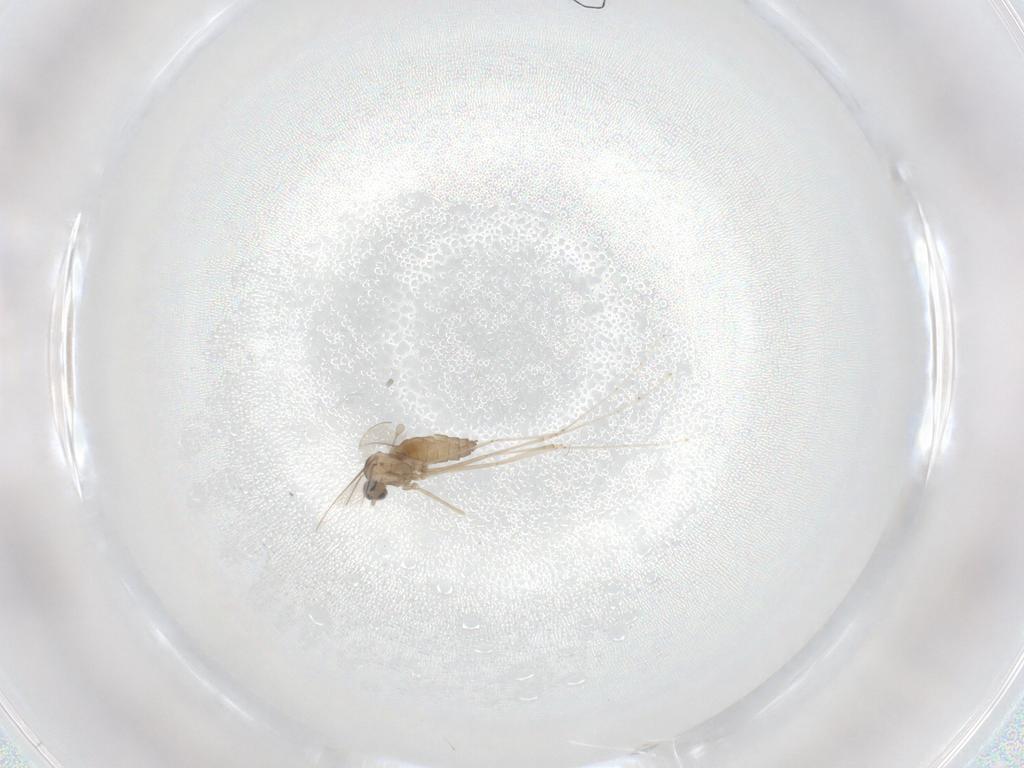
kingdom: Animalia
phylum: Arthropoda
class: Insecta
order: Diptera
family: Cecidomyiidae
